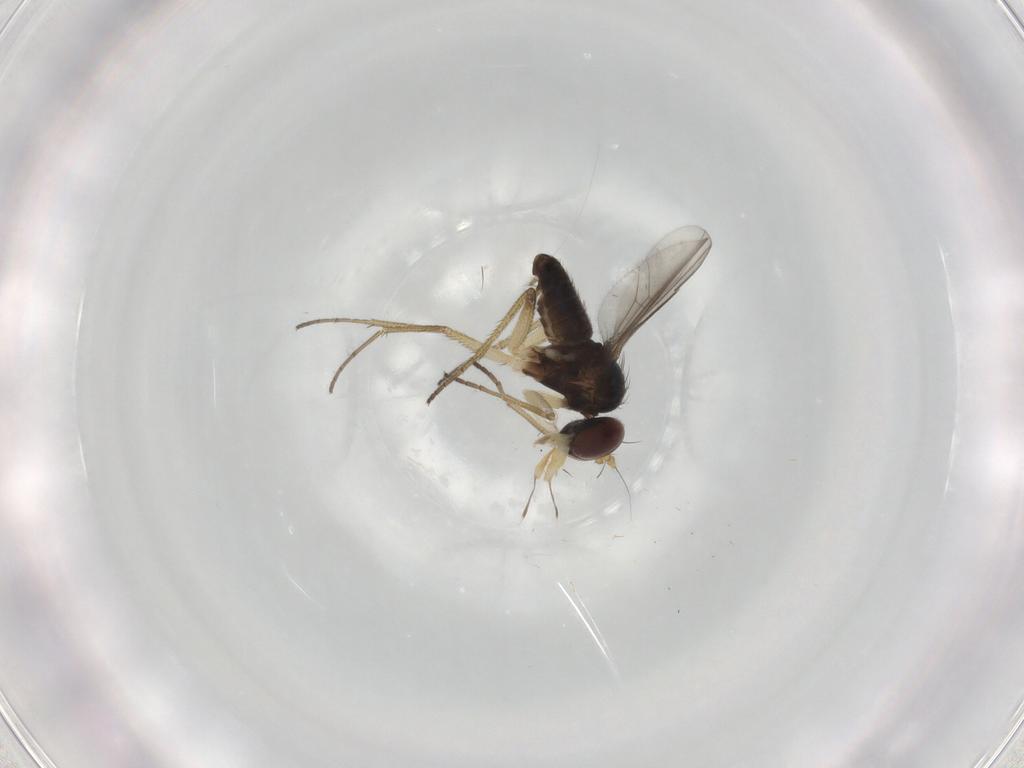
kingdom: Animalia
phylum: Arthropoda
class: Insecta
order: Diptera
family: Dolichopodidae
